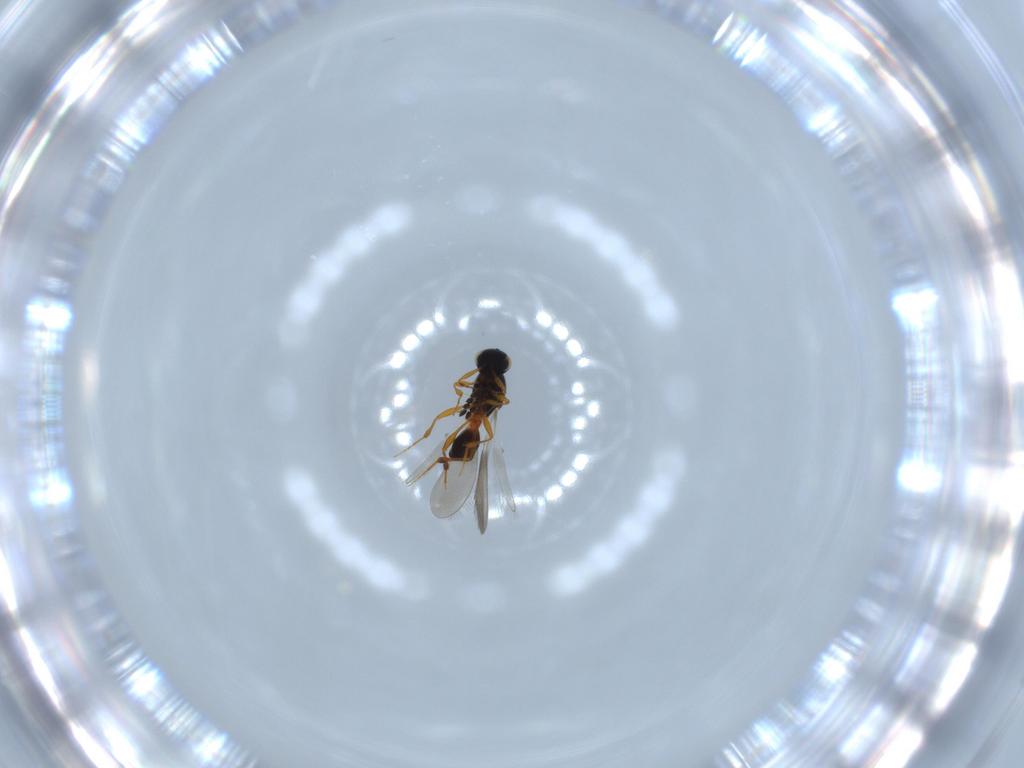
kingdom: Animalia
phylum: Arthropoda
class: Insecta
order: Hymenoptera
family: Platygastridae
